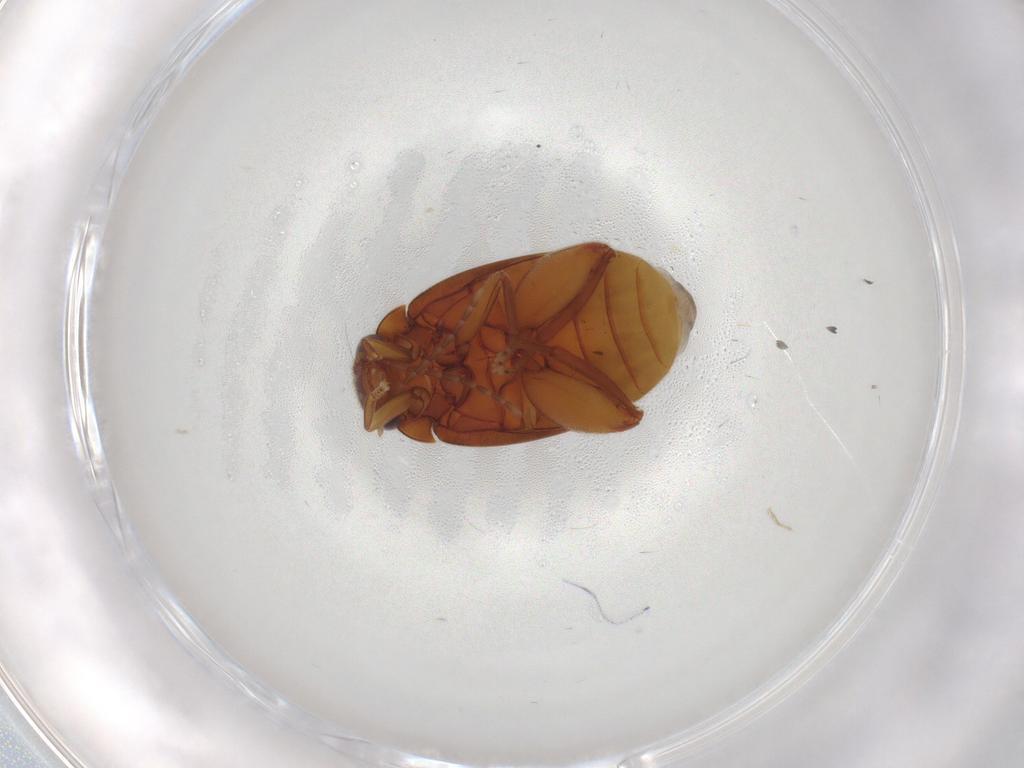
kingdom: Animalia
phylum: Arthropoda
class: Insecta
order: Coleoptera
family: Scirtidae
